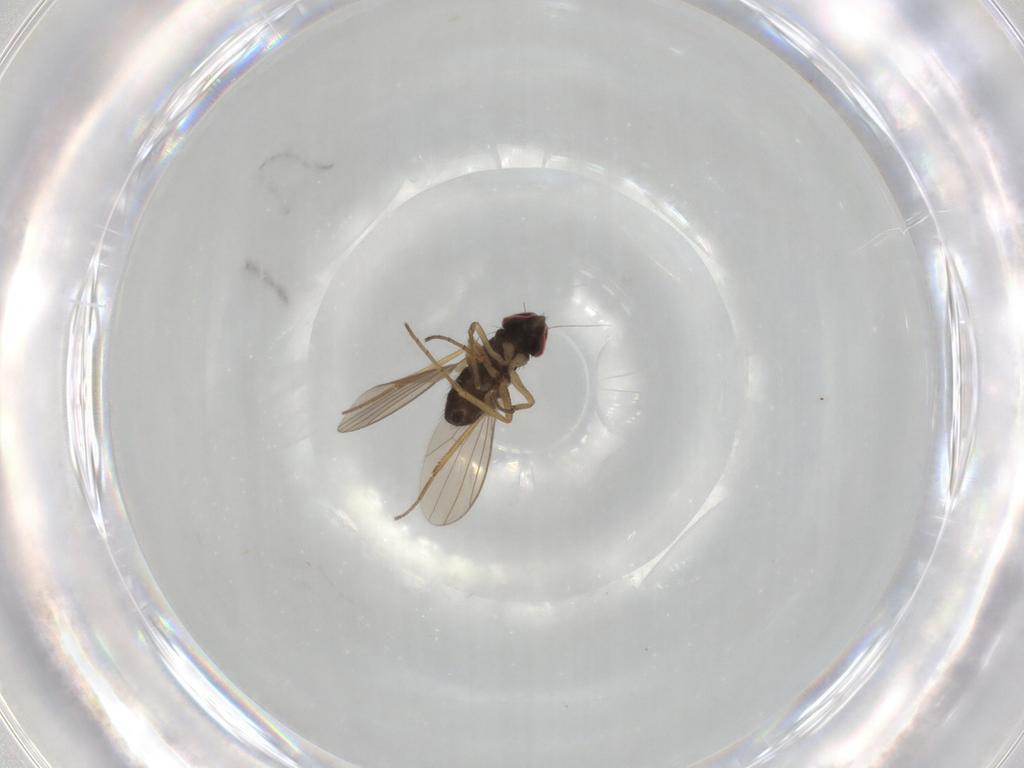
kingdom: Animalia
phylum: Arthropoda
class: Insecta
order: Diptera
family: Dolichopodidae
